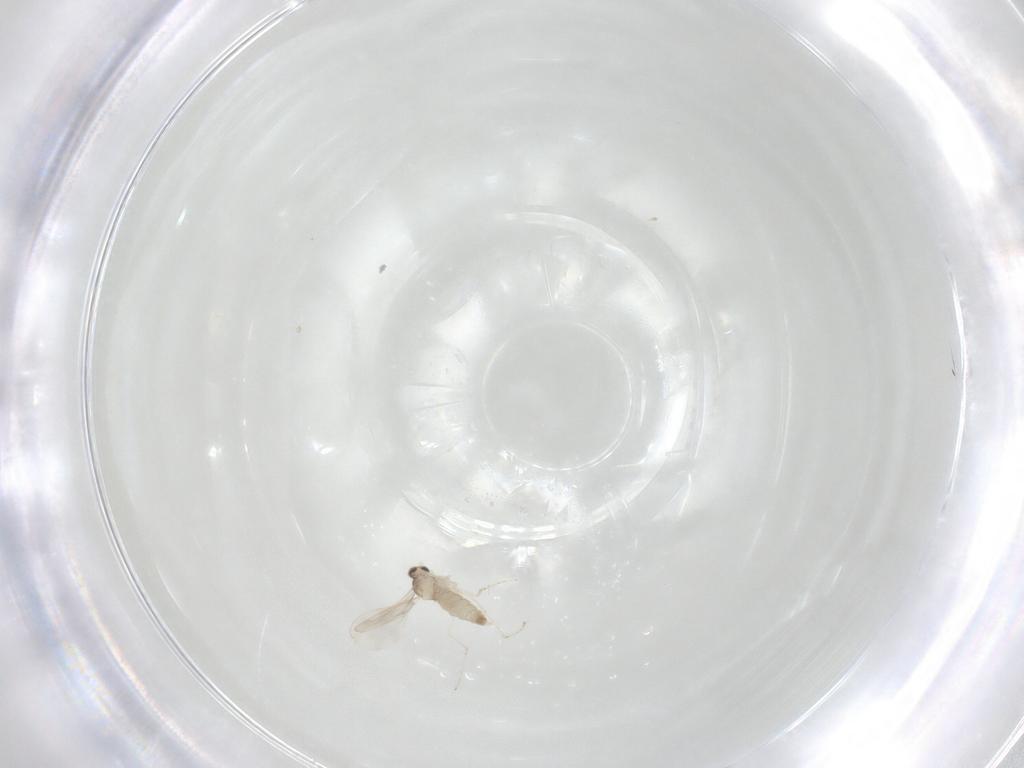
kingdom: Animalia
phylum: Arthropoda
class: Insecta
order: Diptera
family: Cecidomyiidae
